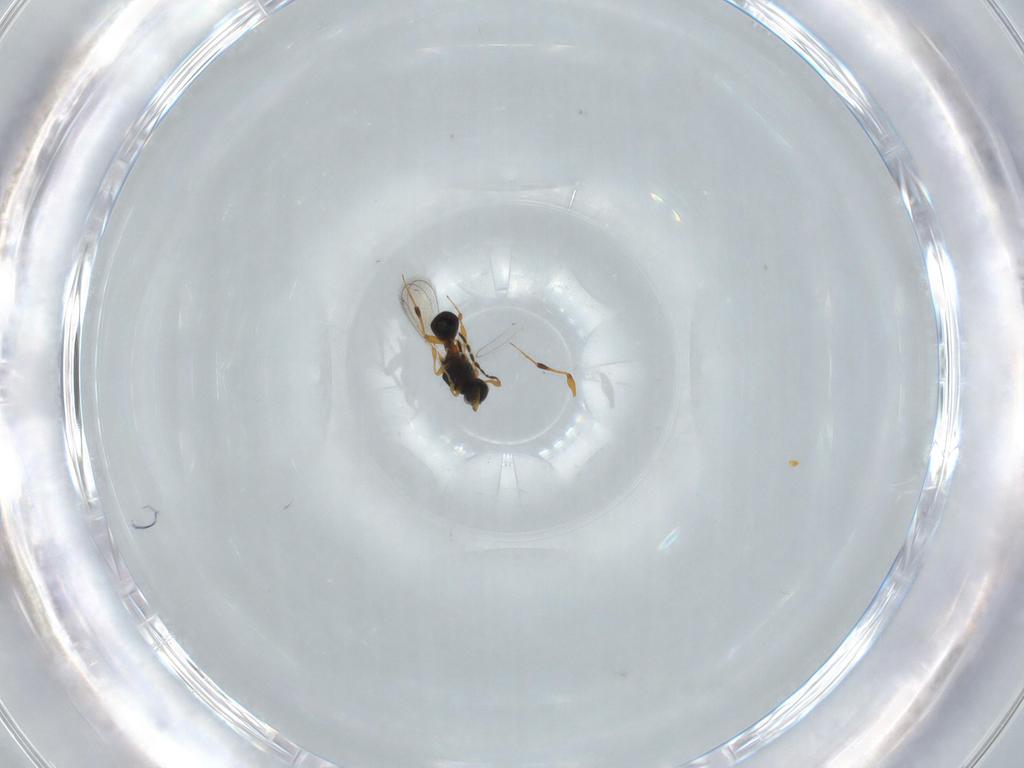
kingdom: Animalia
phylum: Arthropoda
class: Insecta
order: Hymenoptera
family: Platygastridae
